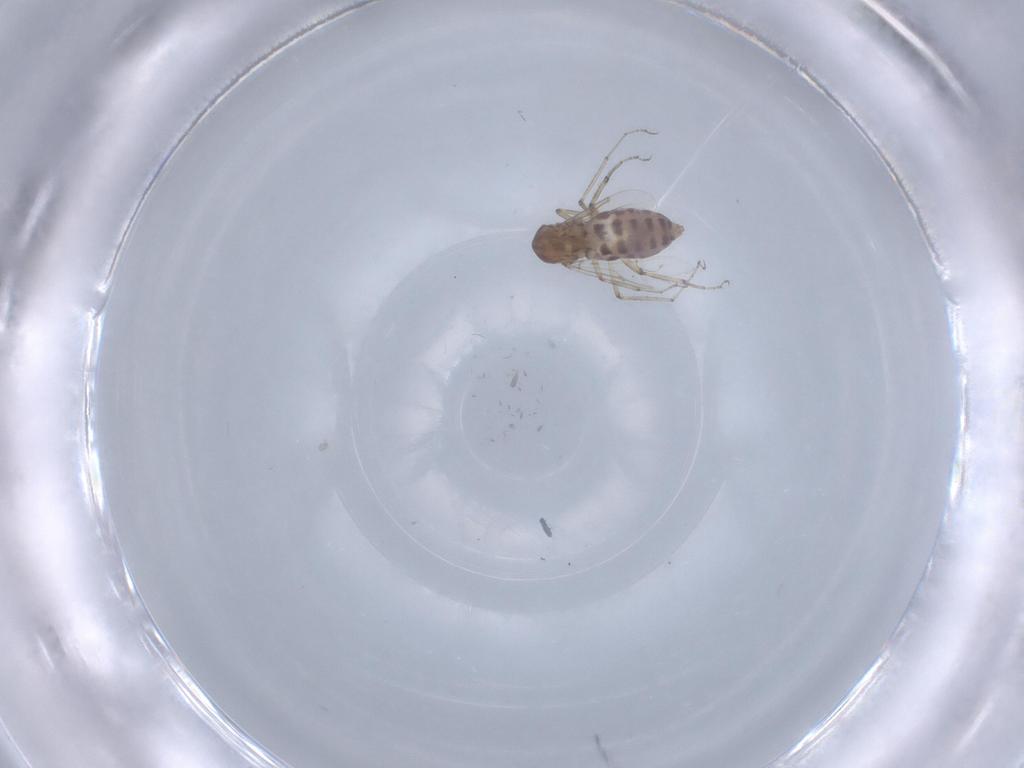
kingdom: Animalia
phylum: Arthropoda
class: Insecta
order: Diptera
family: Ceratopogonidae
